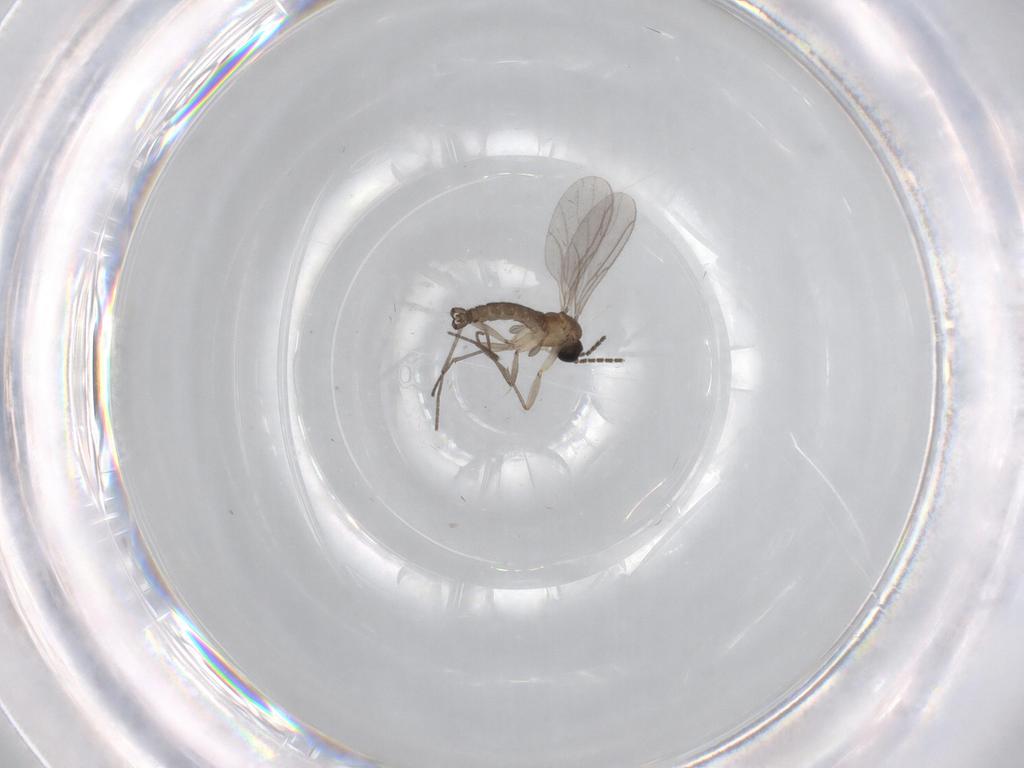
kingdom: Animalia
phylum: Arthropoda
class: Insecta
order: Diptera
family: Sciaridae
